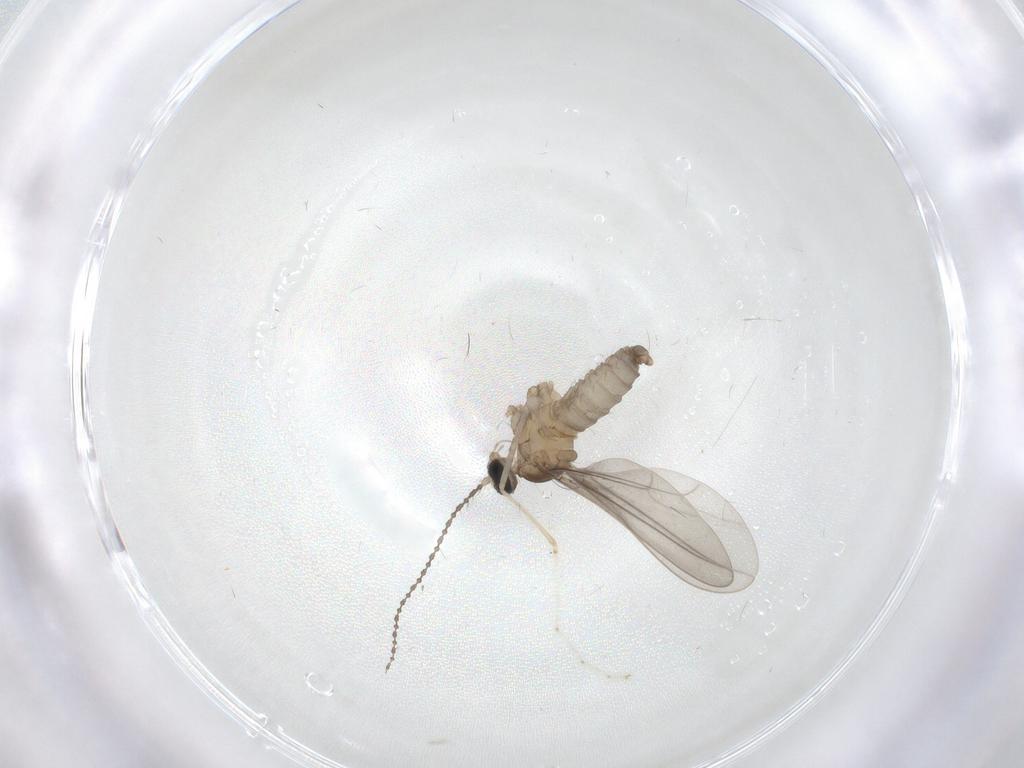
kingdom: Animalia
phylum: Arthropoda
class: Insecta
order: Diptera
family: Cecidomyiidae
